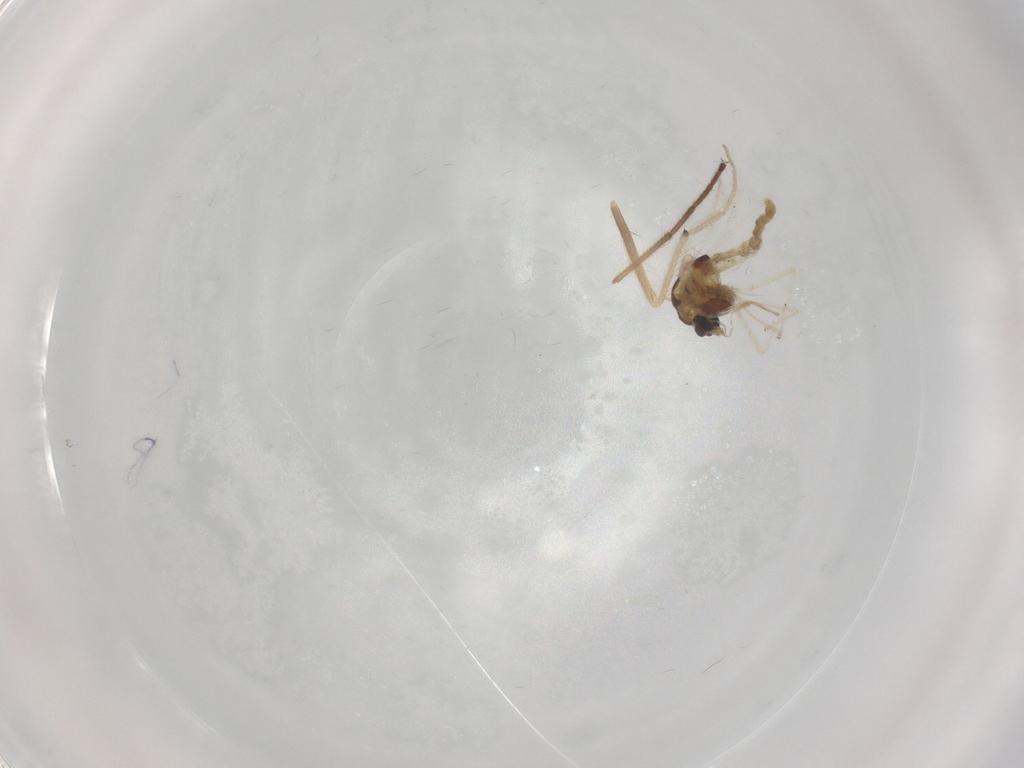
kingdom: Animalia
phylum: Arthropoda
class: Insecta
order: Diptera
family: Chironomidae
